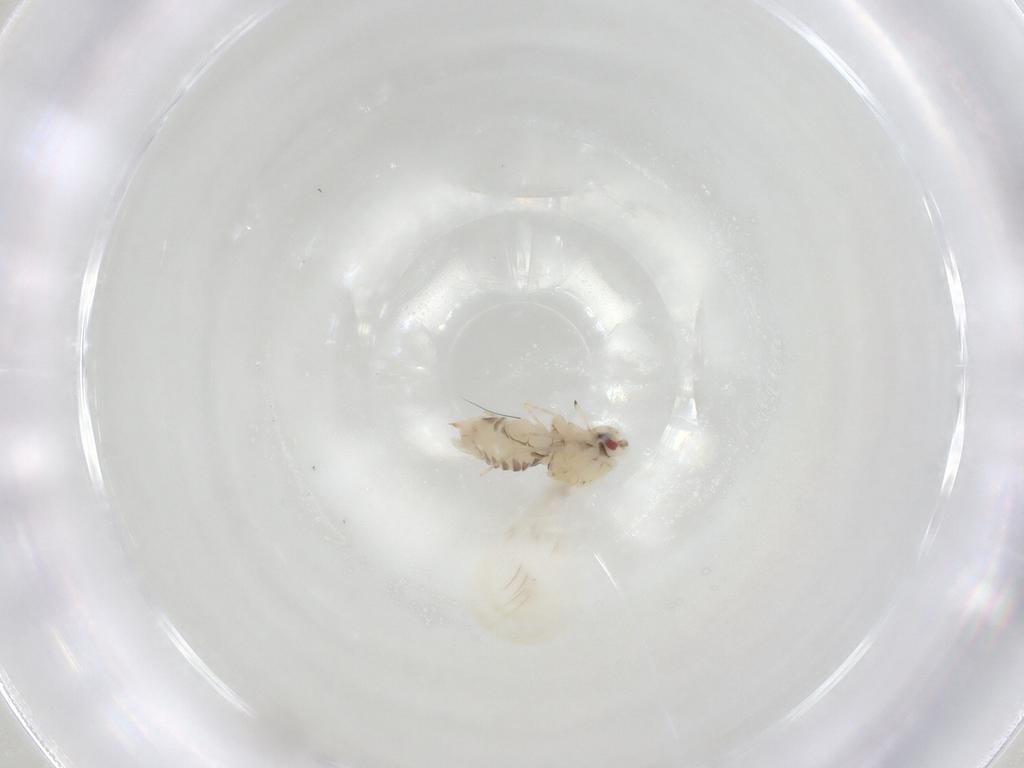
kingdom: Animalia
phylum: Arthropoda
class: Insecta
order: Hemiptera
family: Aleyrodidae
